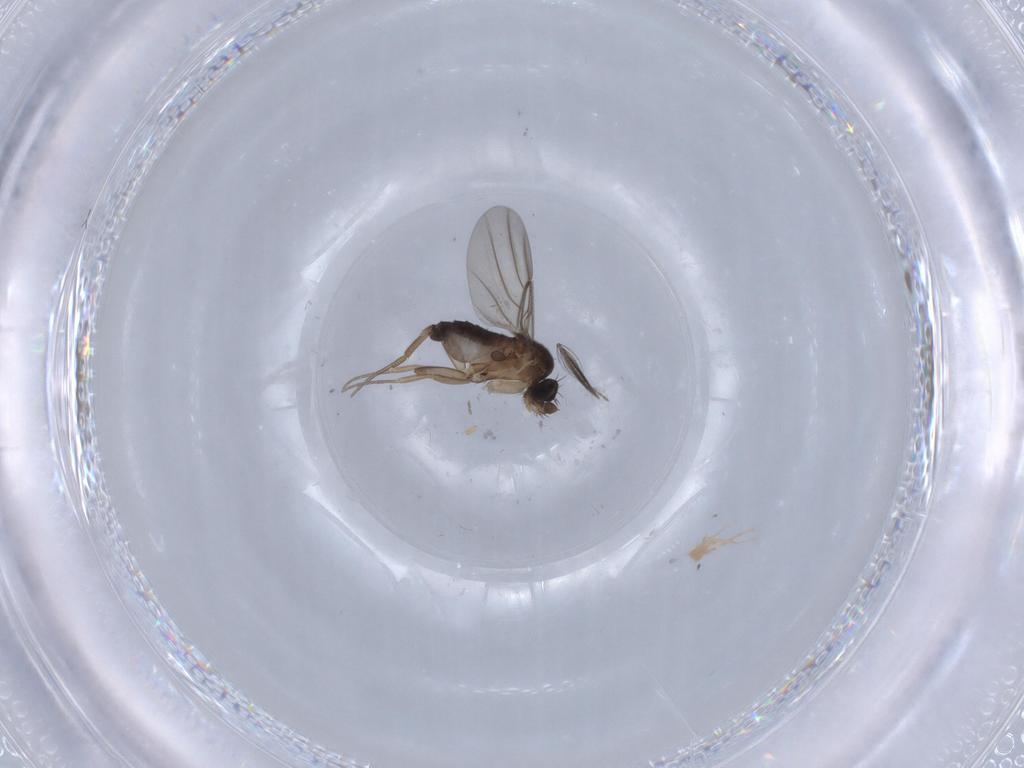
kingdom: Animalia
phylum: Arthropoda
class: Insecta
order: Diptera
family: Phoridae
